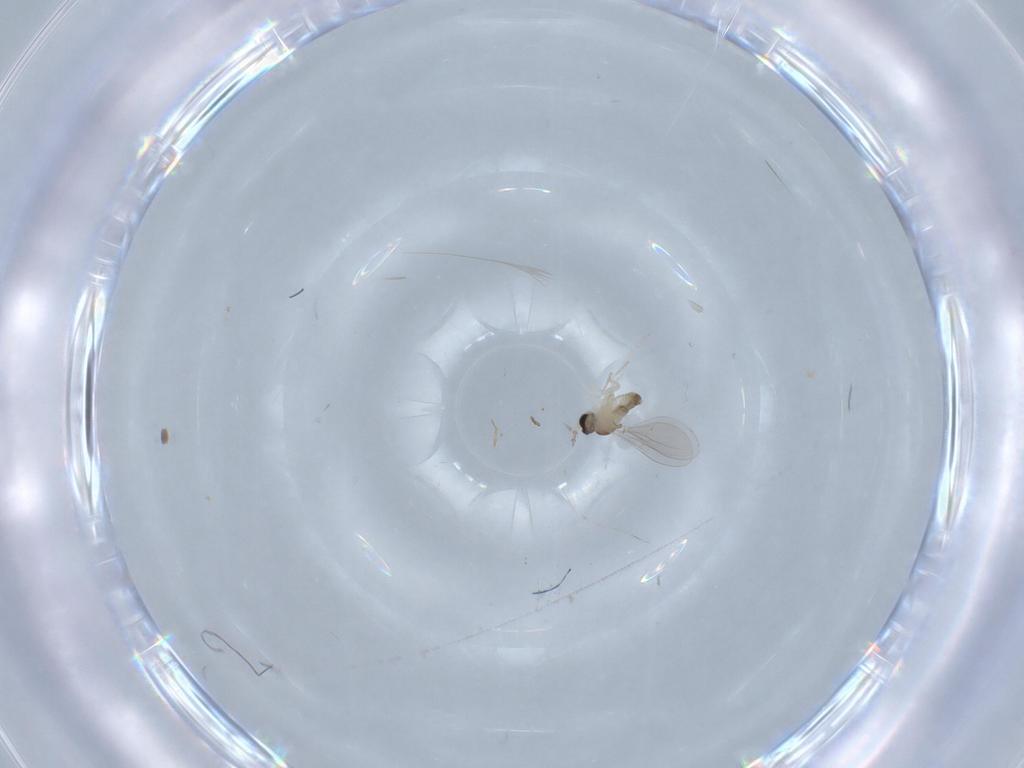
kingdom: Animalia
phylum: Arthropoda
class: Insecta
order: Diptera
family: Cecidomyiidae
